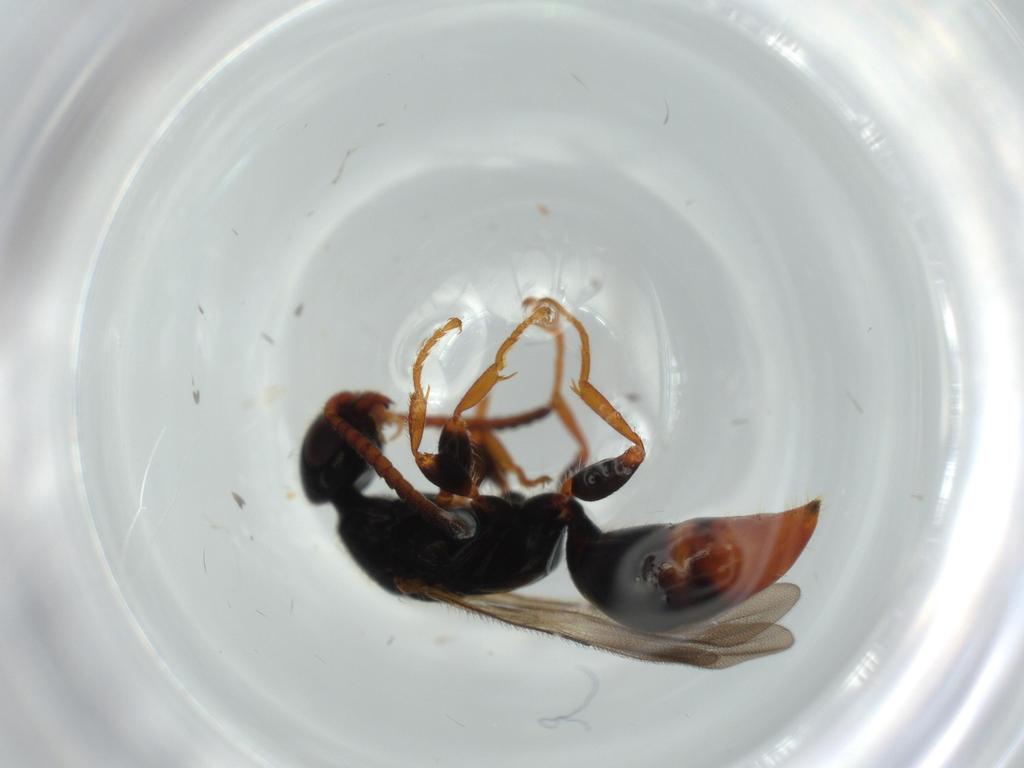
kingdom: Animalia
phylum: Arthropoda
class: Insecta
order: Hymenoptera
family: Bethylidae
